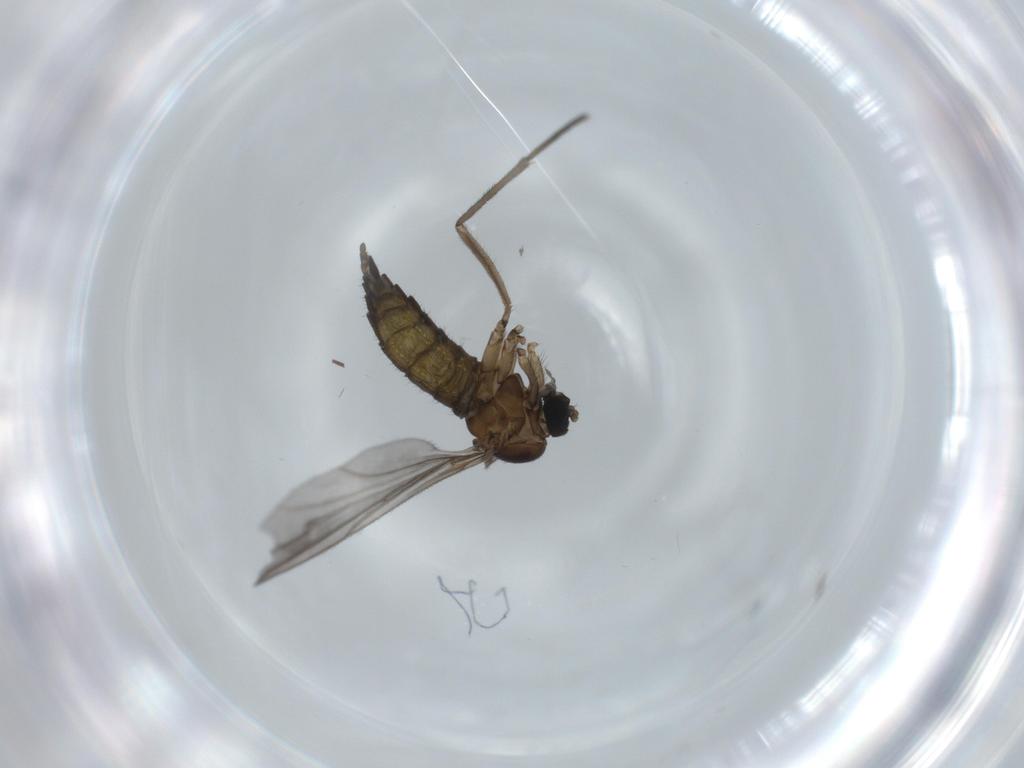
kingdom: Animalia
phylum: Arthropoda
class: Insecta
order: Diptera
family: Sciaridae
